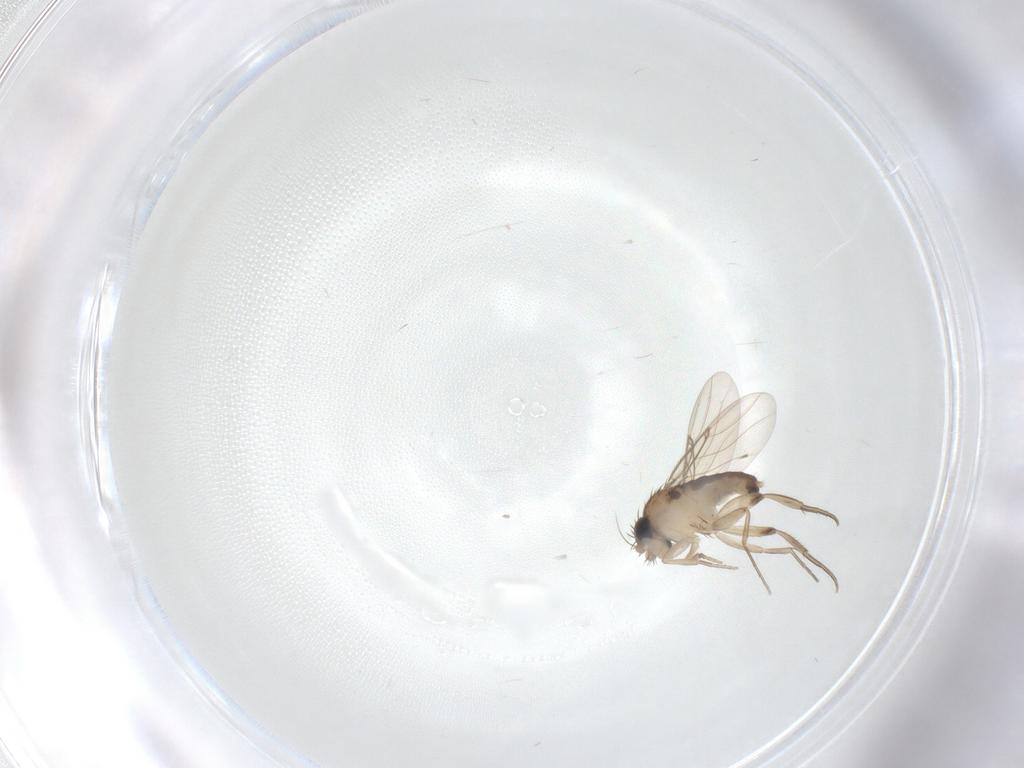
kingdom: Animalia
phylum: Arthropoda
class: Insecta
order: Diptera
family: Phoridae
